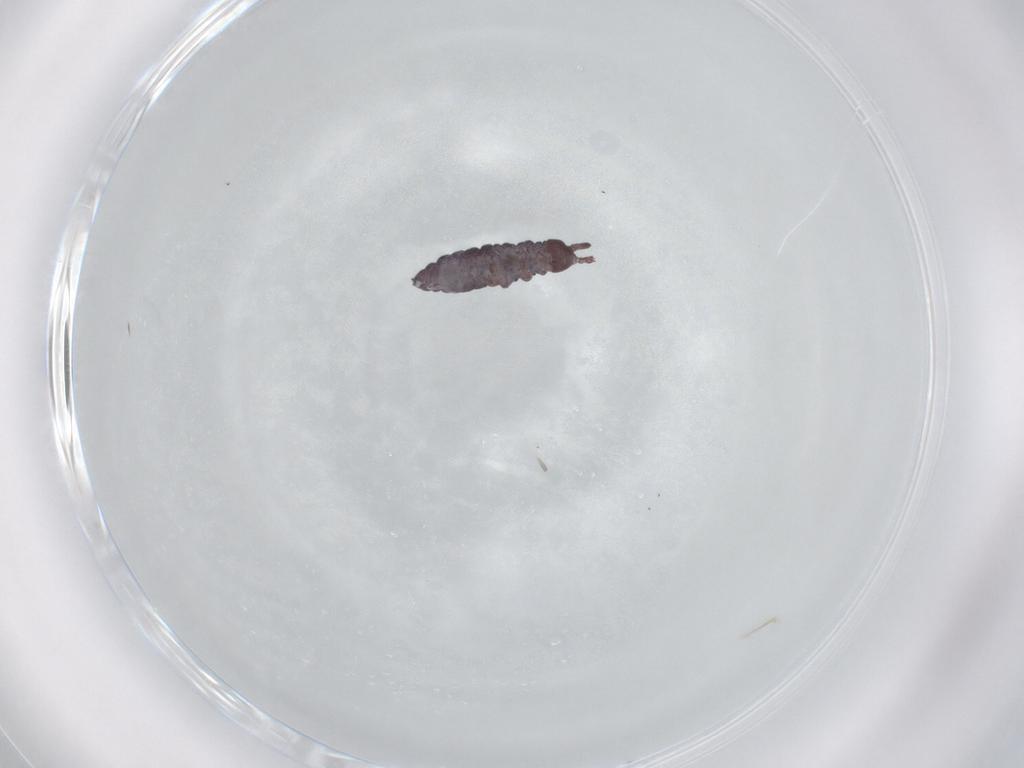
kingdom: Animalia
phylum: Arthropoda
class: Collembola
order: Poduromorpha
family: Hypogastruridae
